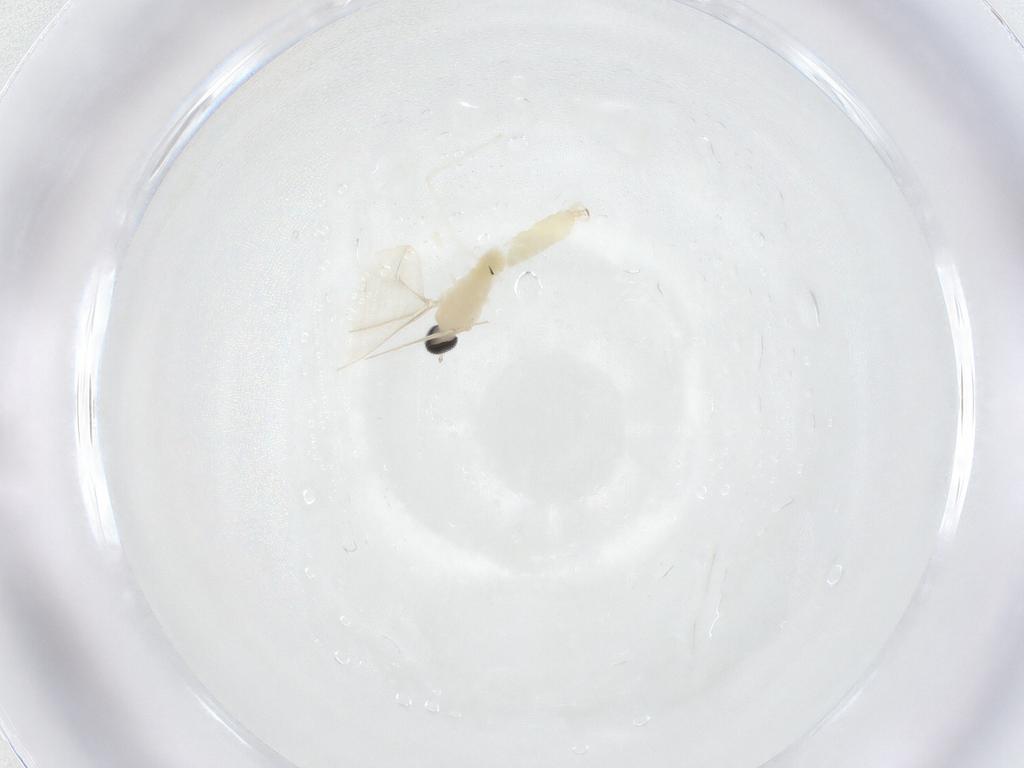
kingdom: Animalia
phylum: Arthropoda
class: Insecta
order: Diptera
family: Cecidomyiidae
